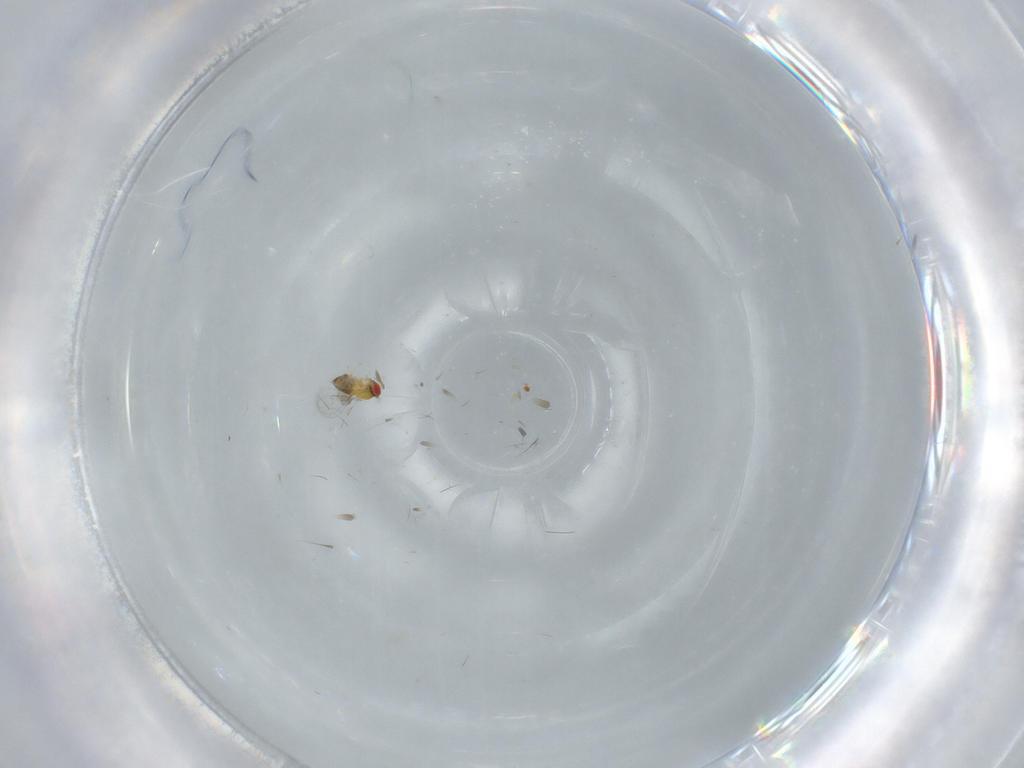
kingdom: Animalia
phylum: Arthropoda
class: Insecta
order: Hymenoptera
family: Trichogrammatidae
